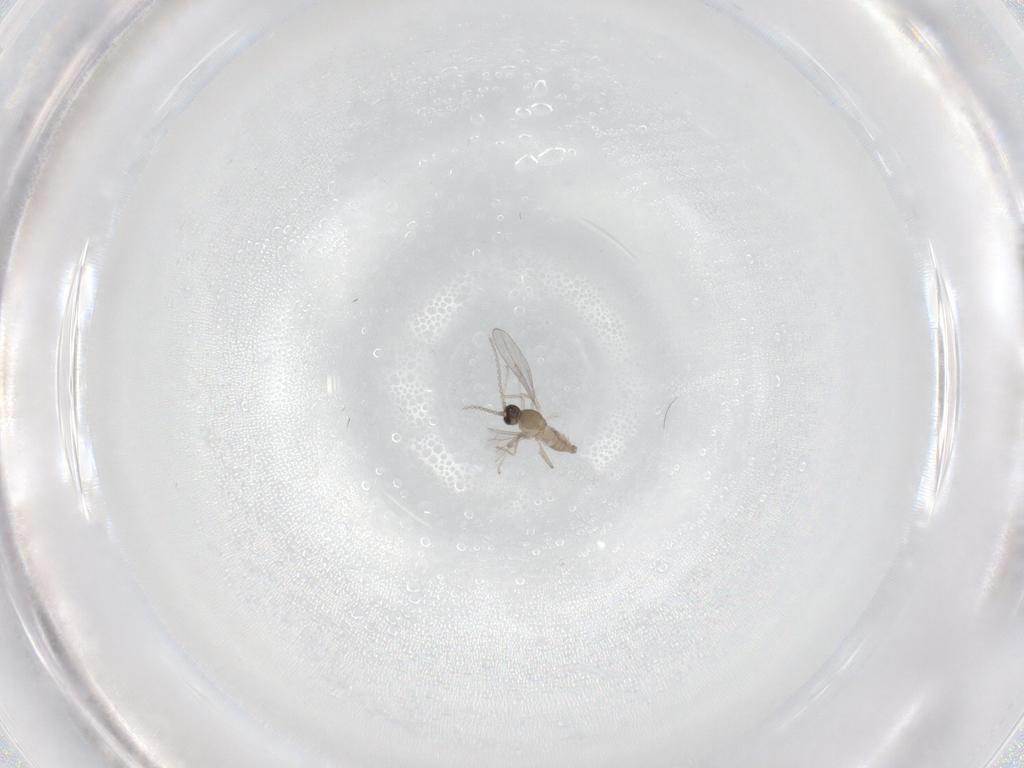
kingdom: Animalia
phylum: Arthropoda
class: Insecta
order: Diptera
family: Cecidomyiidae
